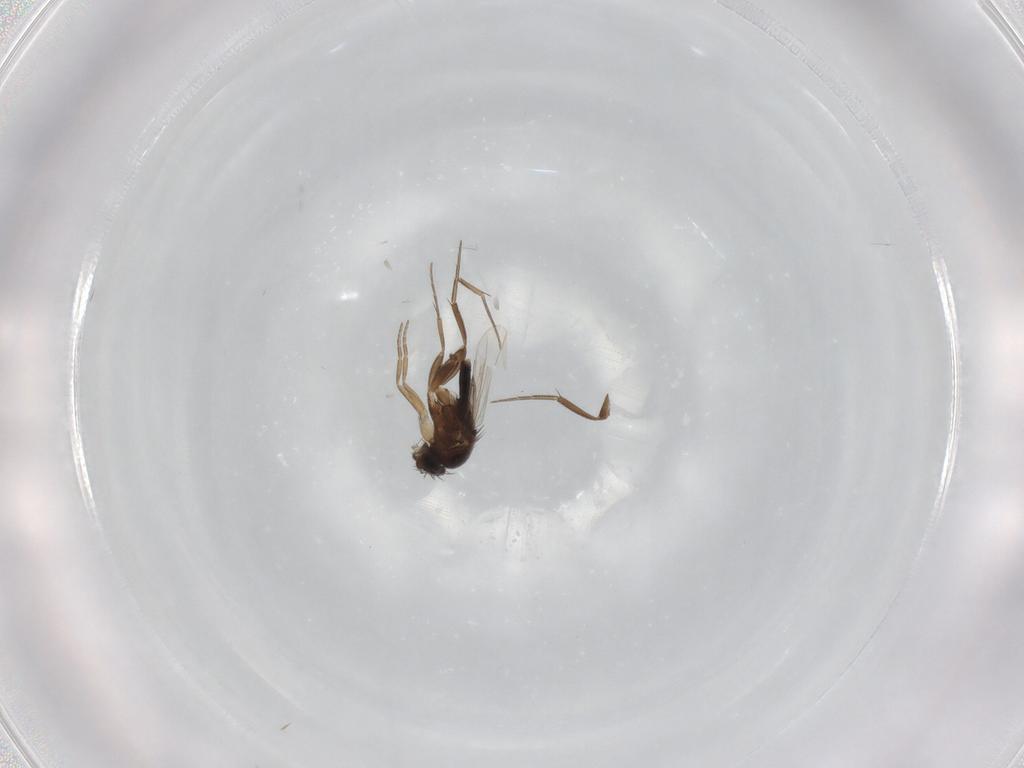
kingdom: Animalia
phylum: Arthropoda
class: Insecta
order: Diptera
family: Phoridae
